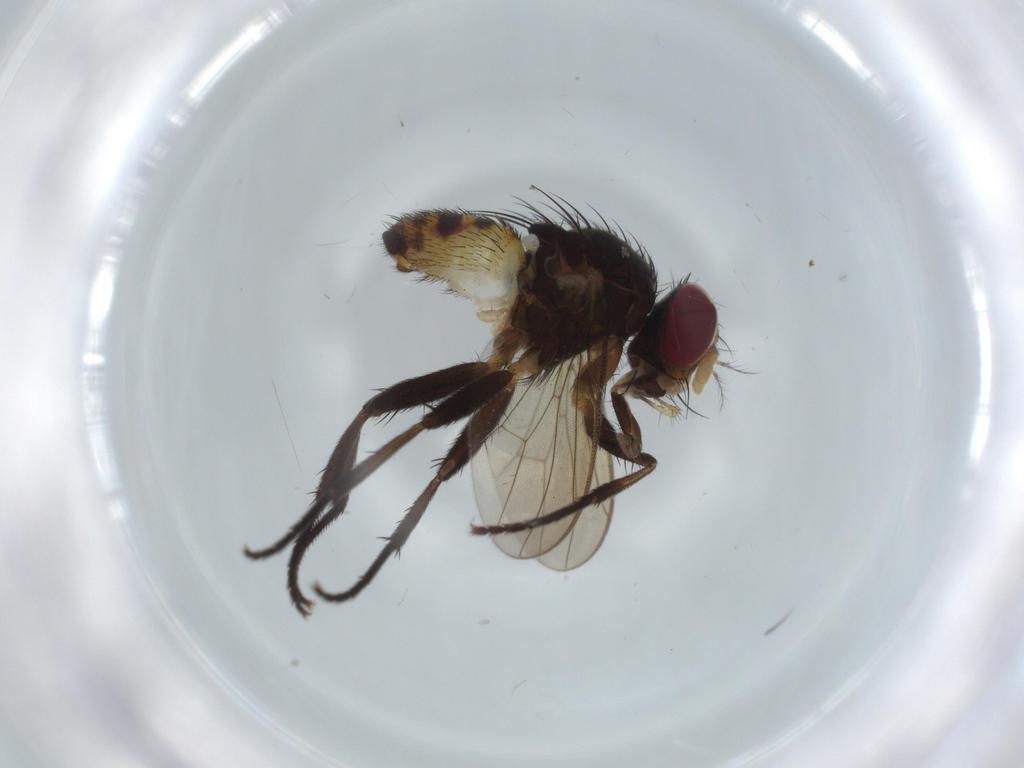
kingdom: Animalia
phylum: Arthropoda
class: Insecta
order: Diptera
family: Anthomyiidae
